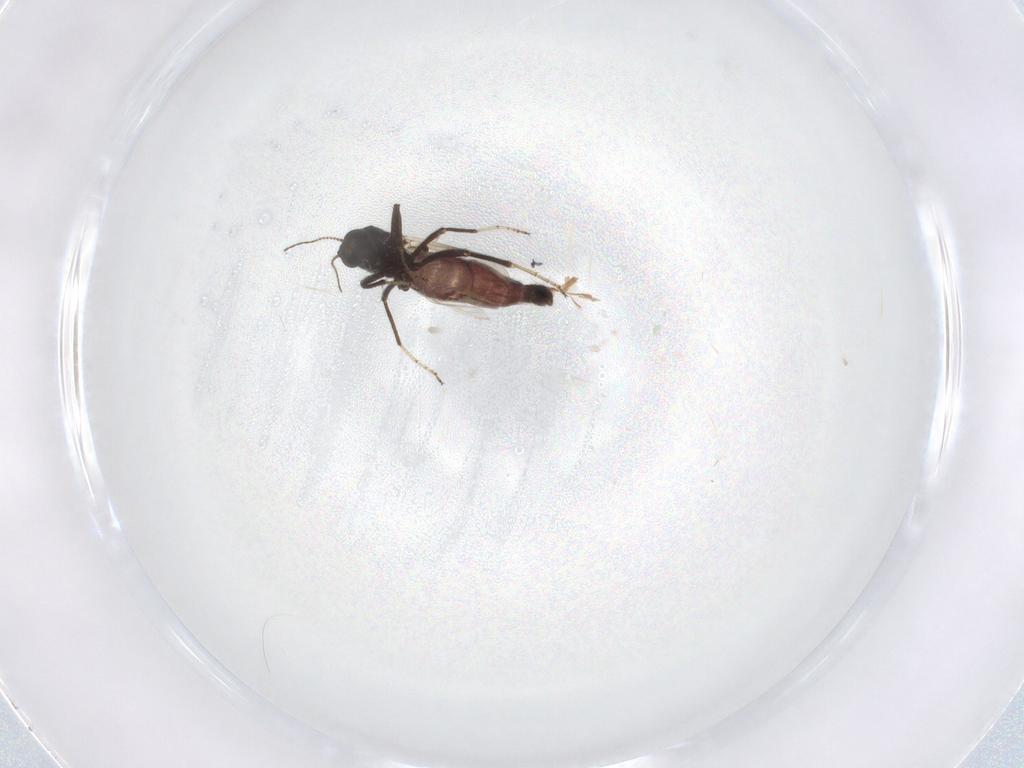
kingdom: Animalia
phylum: Arthropoda
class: Insecta
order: Diptera
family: Ceratopogonidae
